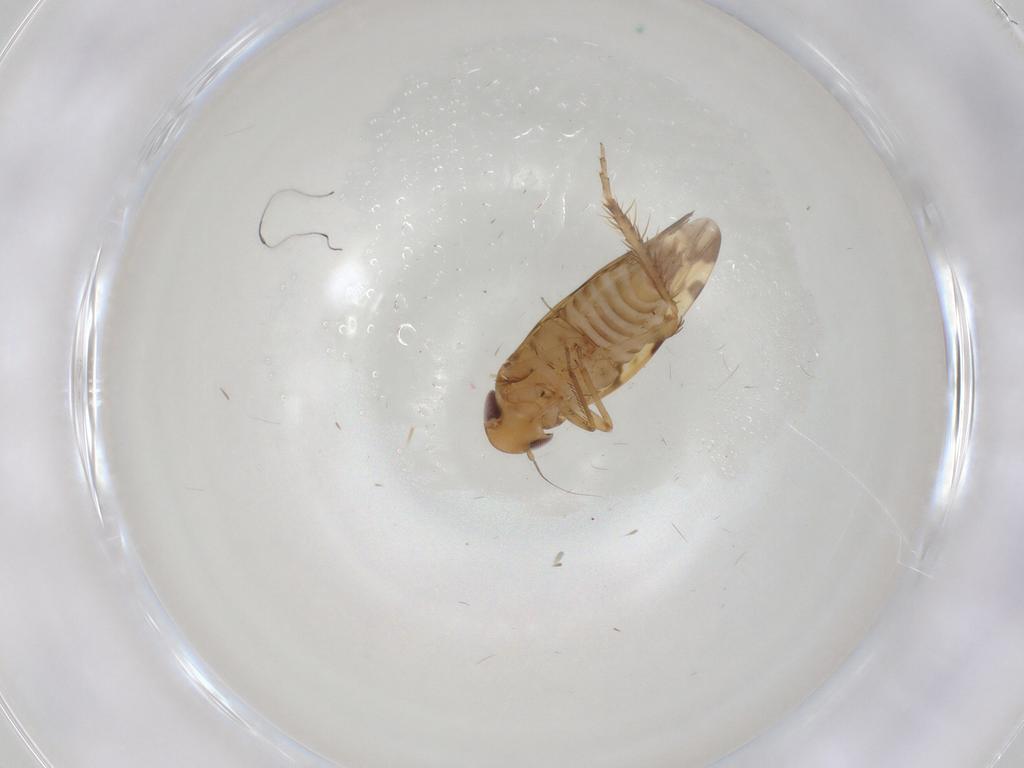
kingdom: Animalia
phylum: Arthropoda
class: Insecta
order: Hemiptera
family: Cicadellidae
